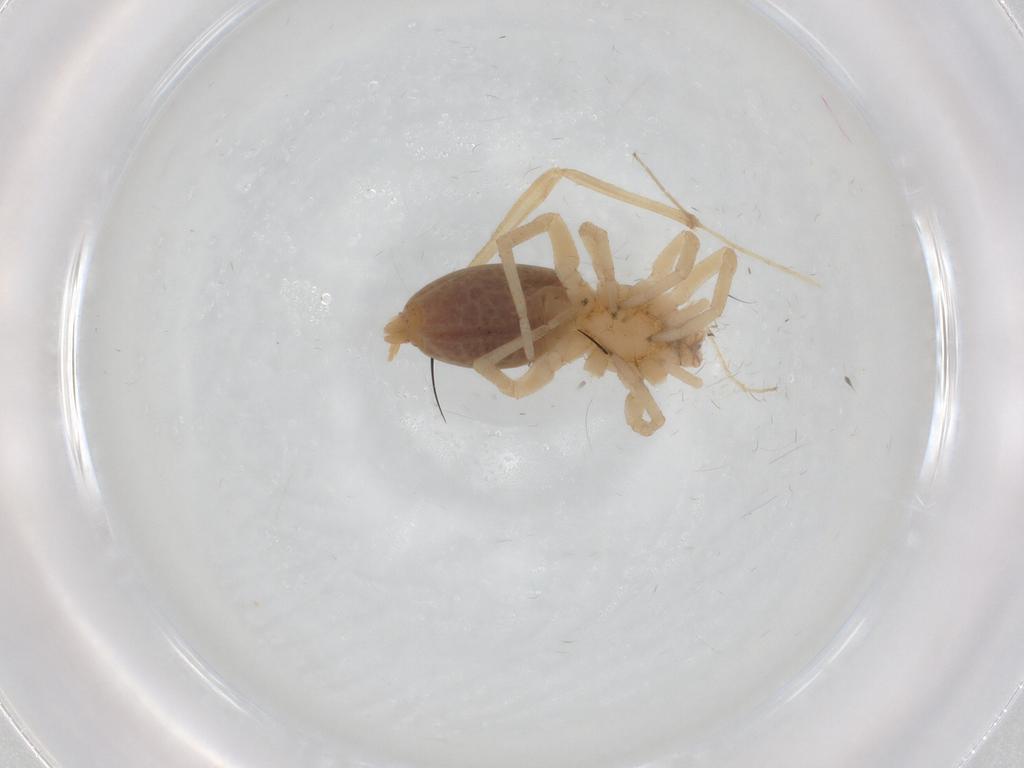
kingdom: Animalia
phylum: Arthropoda
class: Arachnida
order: Araneae
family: Clubionidae
